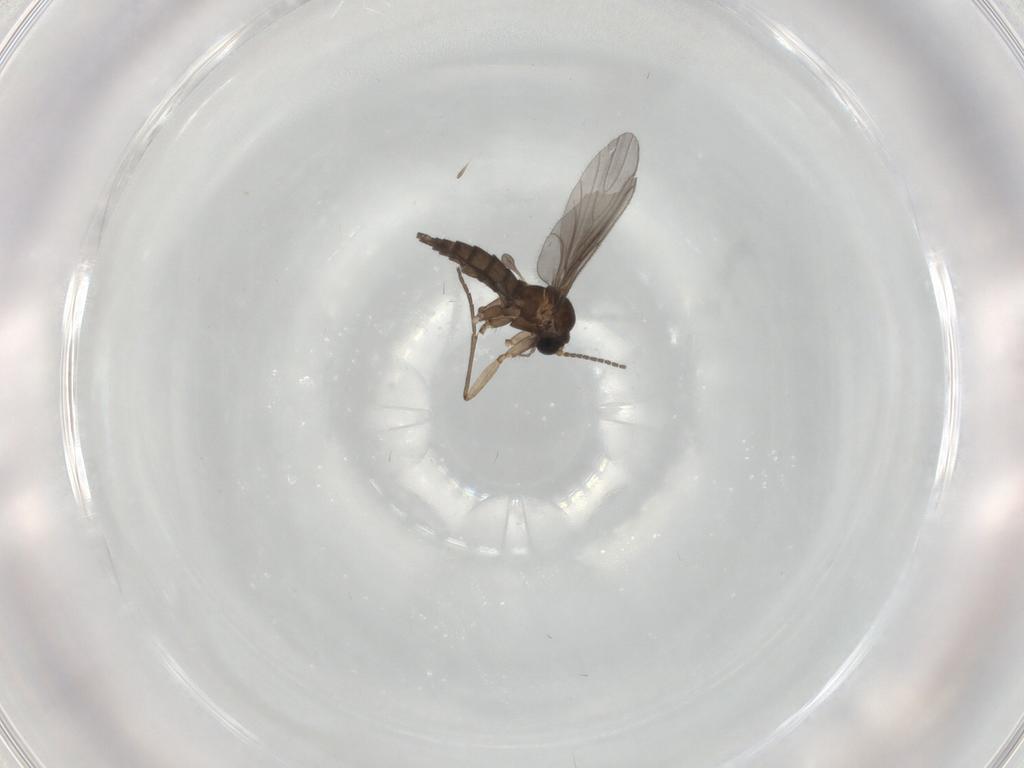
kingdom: Animalia
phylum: Arthropoda
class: Insecta
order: Diptera
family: Sciaridae
